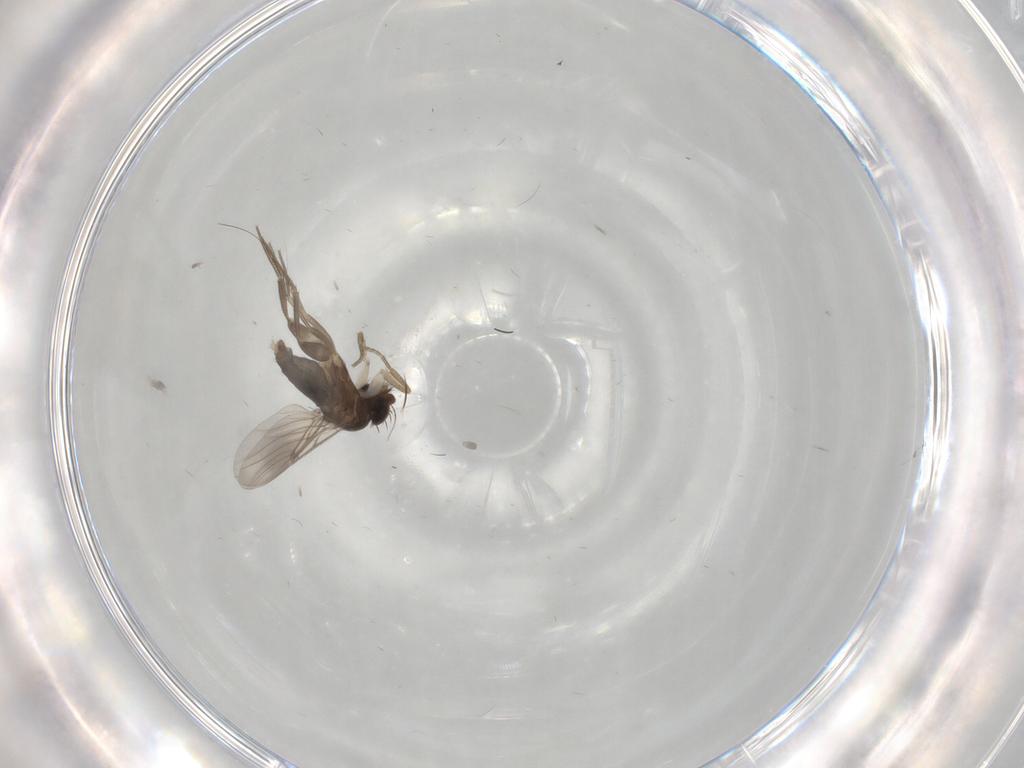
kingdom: Animalia
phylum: Arthropoda
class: Insecta
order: Diptera
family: Phoridae
